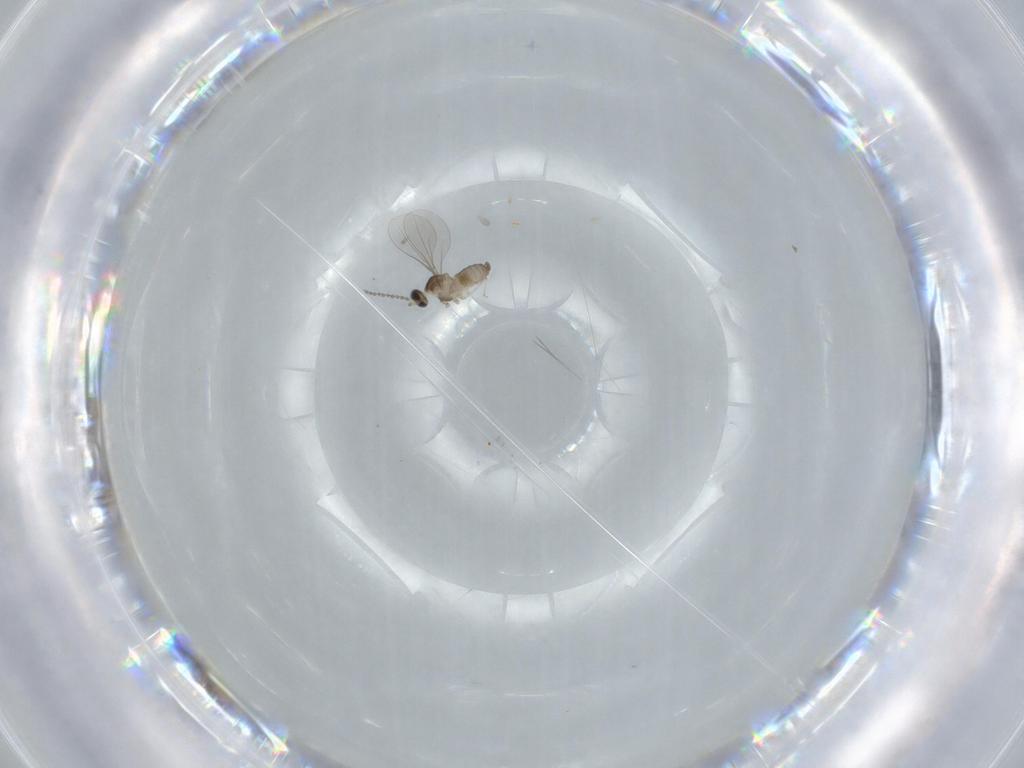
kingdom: Animalia
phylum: Arthropoda
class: Insecta
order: Diptera
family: Cecidomyiidae
